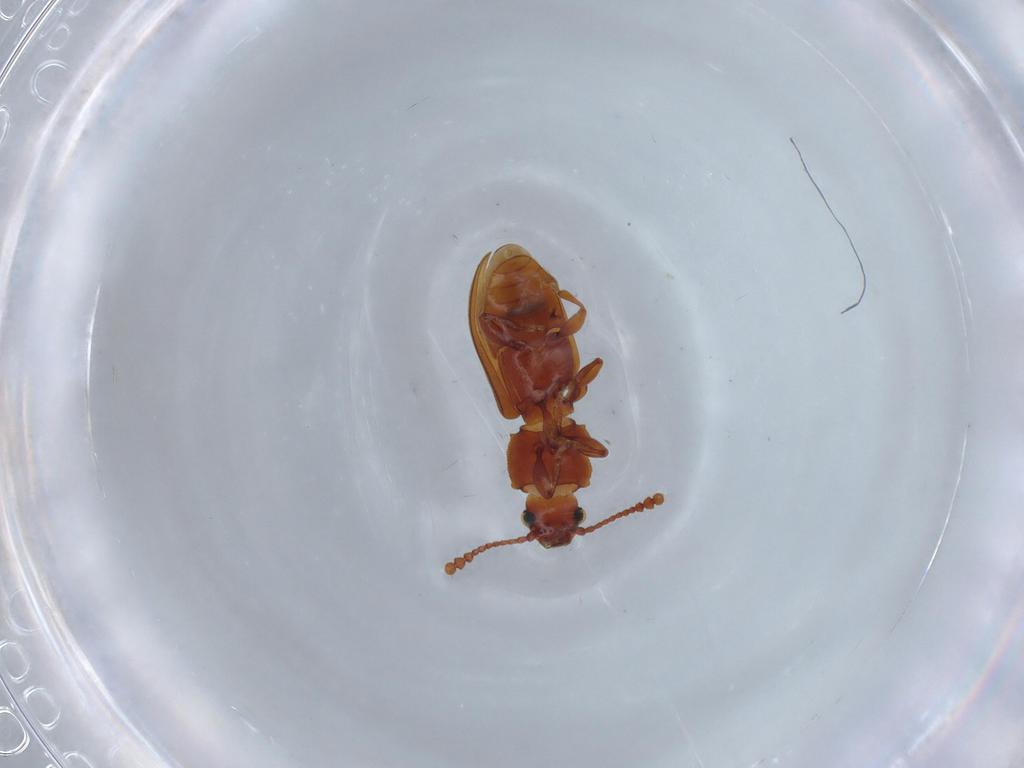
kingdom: Animalia
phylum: Arthropoda
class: Insecta
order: Coleoptera
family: Silvanidae
